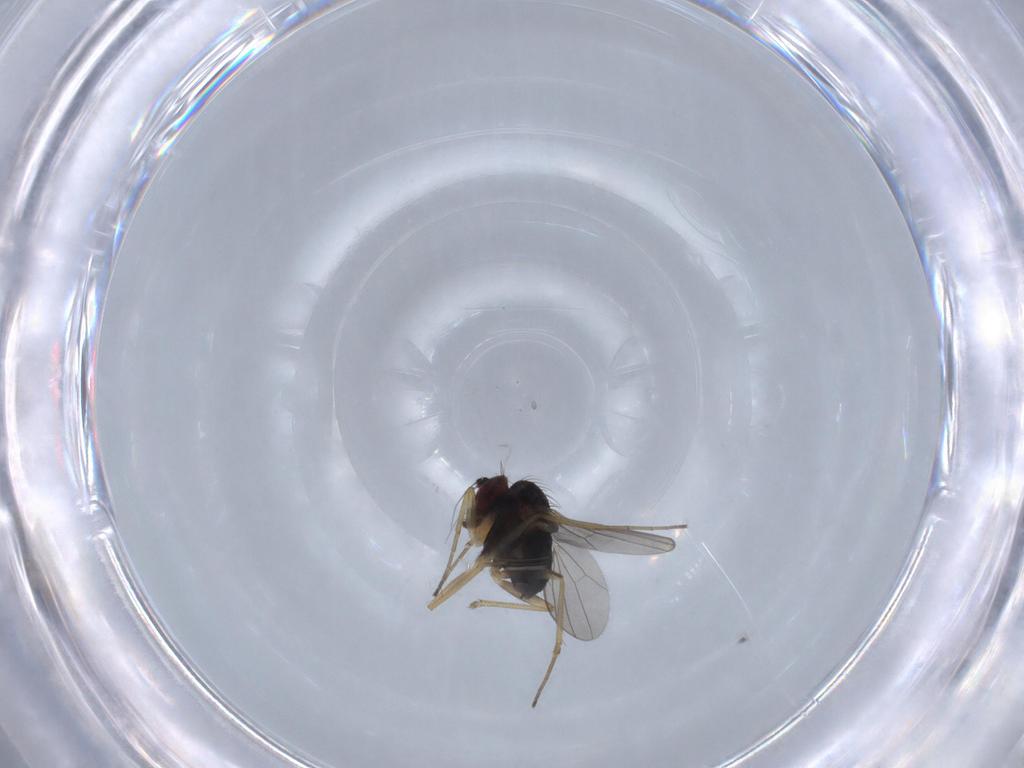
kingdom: Animalia
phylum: Arthropoda
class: Insecta
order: Diptera
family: Dolichopodidae
